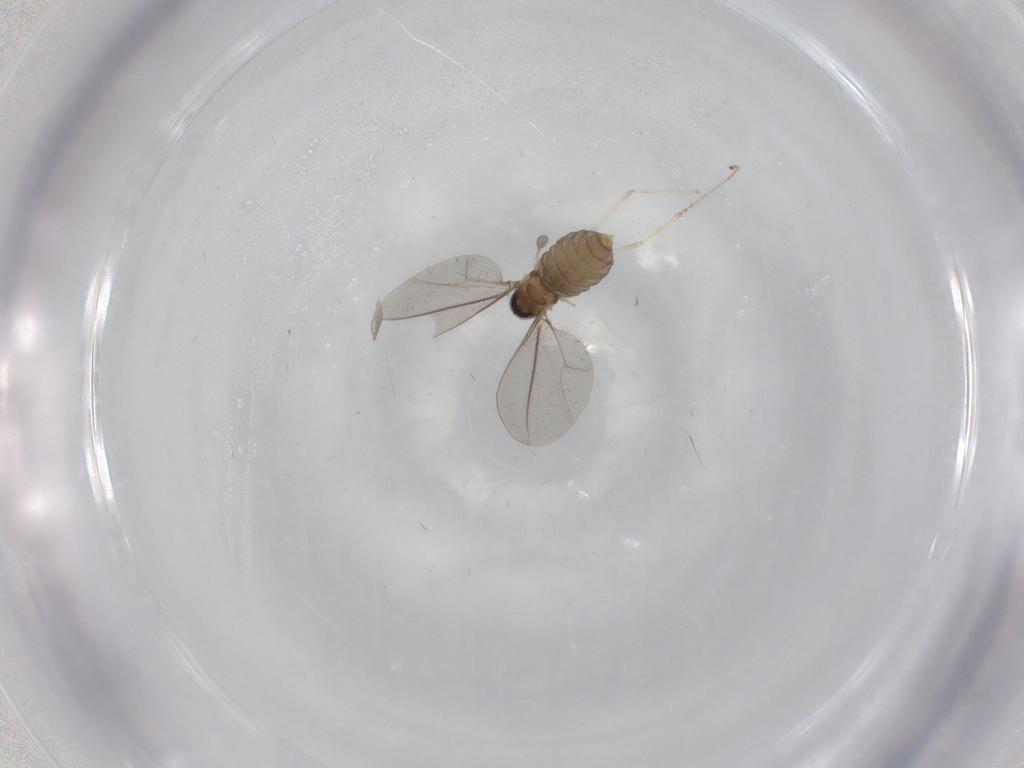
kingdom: Animalia
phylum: Arthropoda
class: Insecta
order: Diptera
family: Cecidomyiidae
